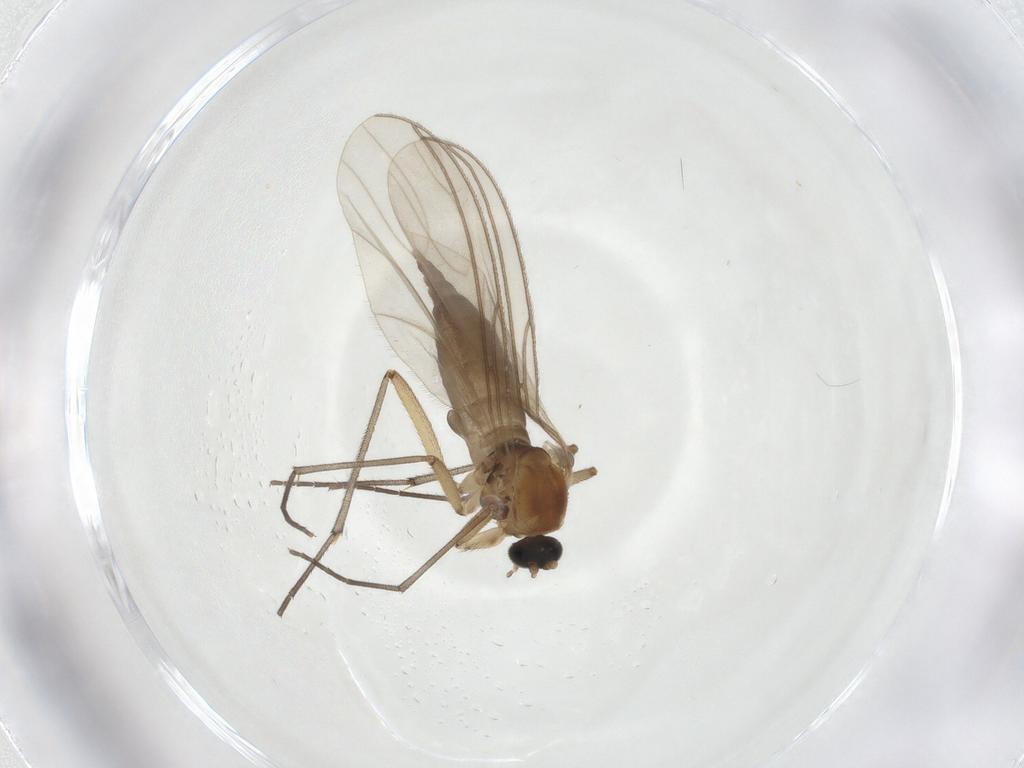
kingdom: Animalia
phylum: Arthropoda
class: Insecta
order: Diptera
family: Sciaridae
